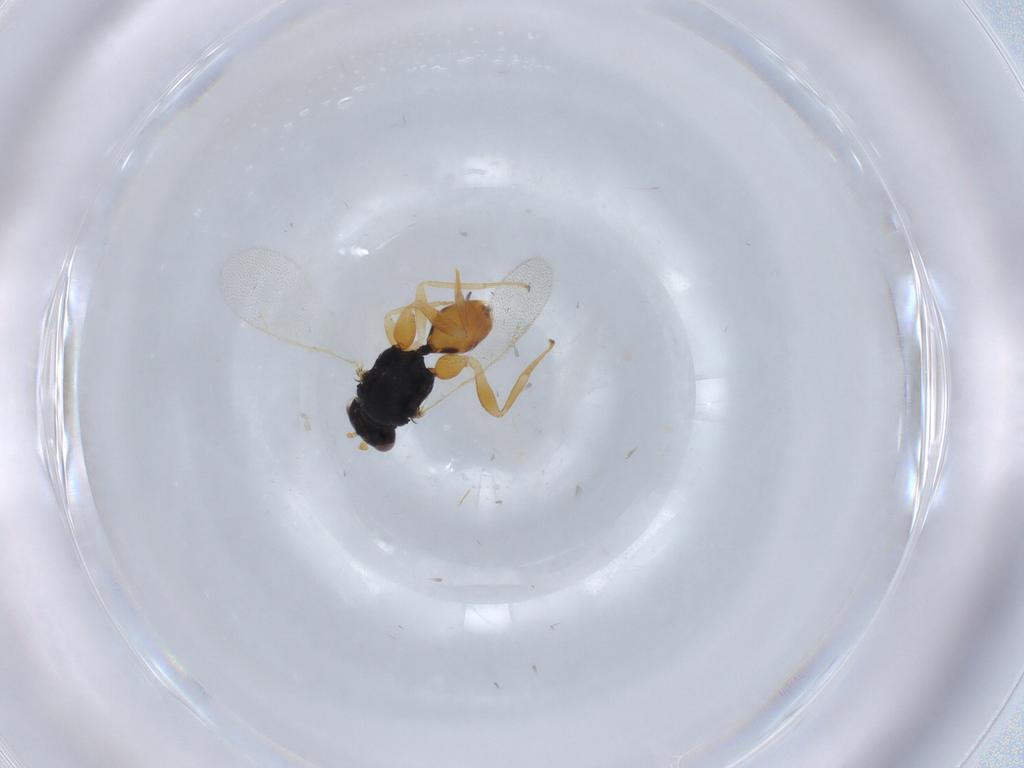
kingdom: Animalia
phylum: Arthropoda
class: Insecta
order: Hymenoptera
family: Eulophidae
